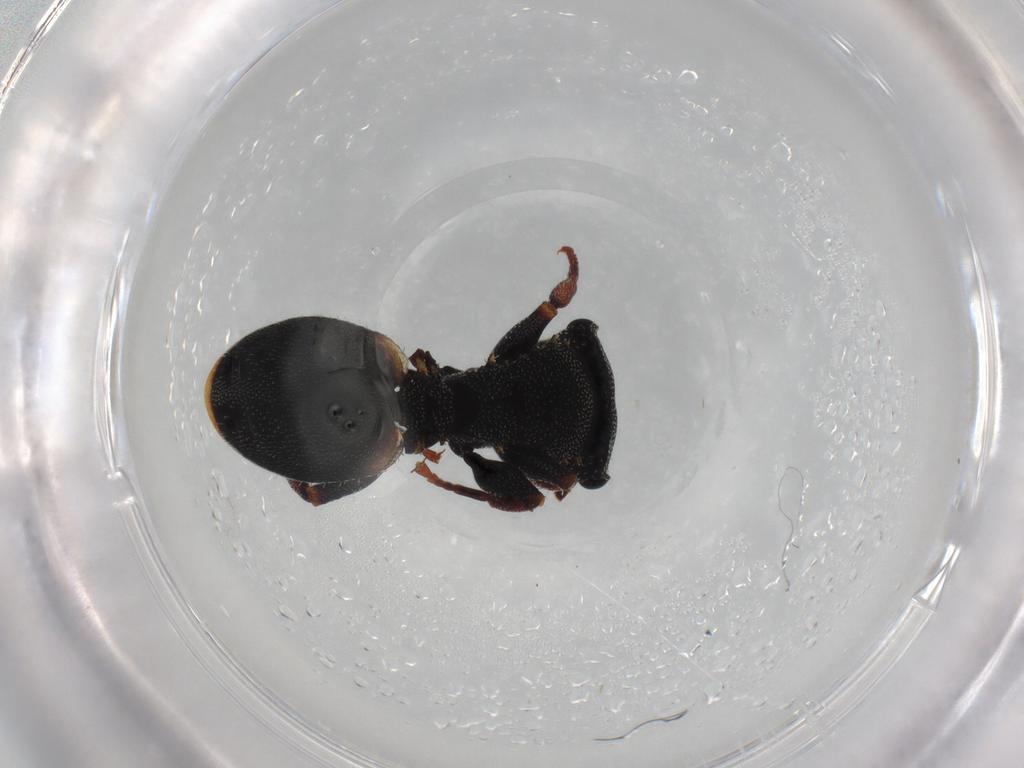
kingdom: Animalia
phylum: Arthropoda
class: Insecta
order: Hymenoptera
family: Formicidae
